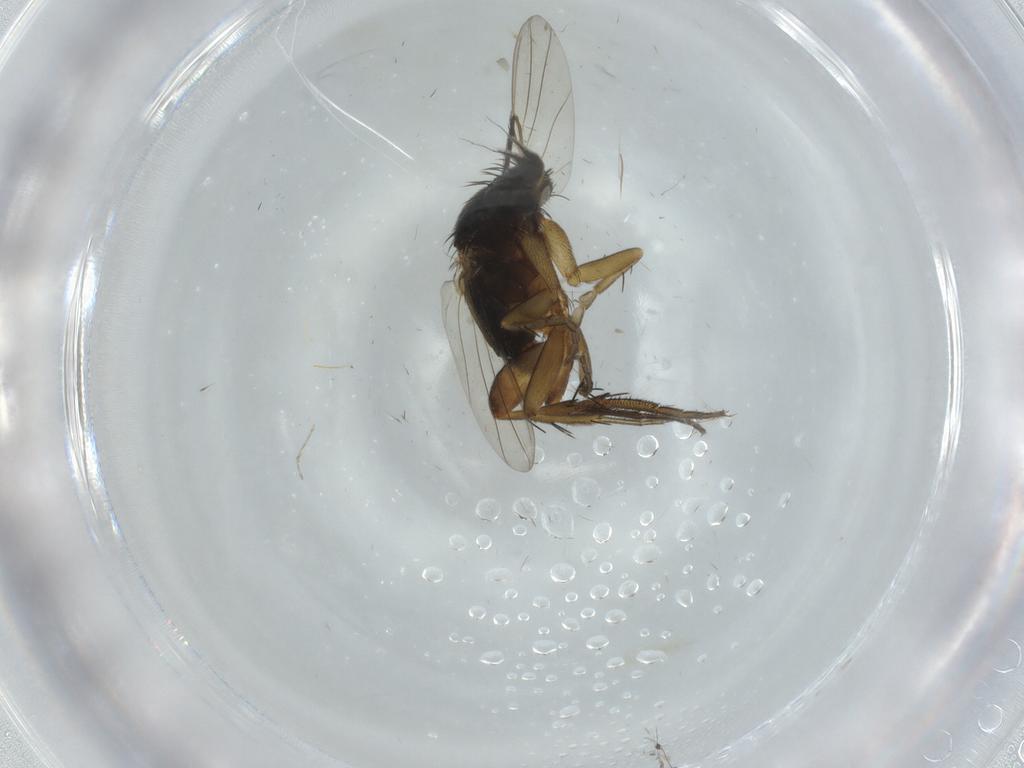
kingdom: Animalia
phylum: Arthropoda
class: Insecta
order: Diptera
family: Phoridae
